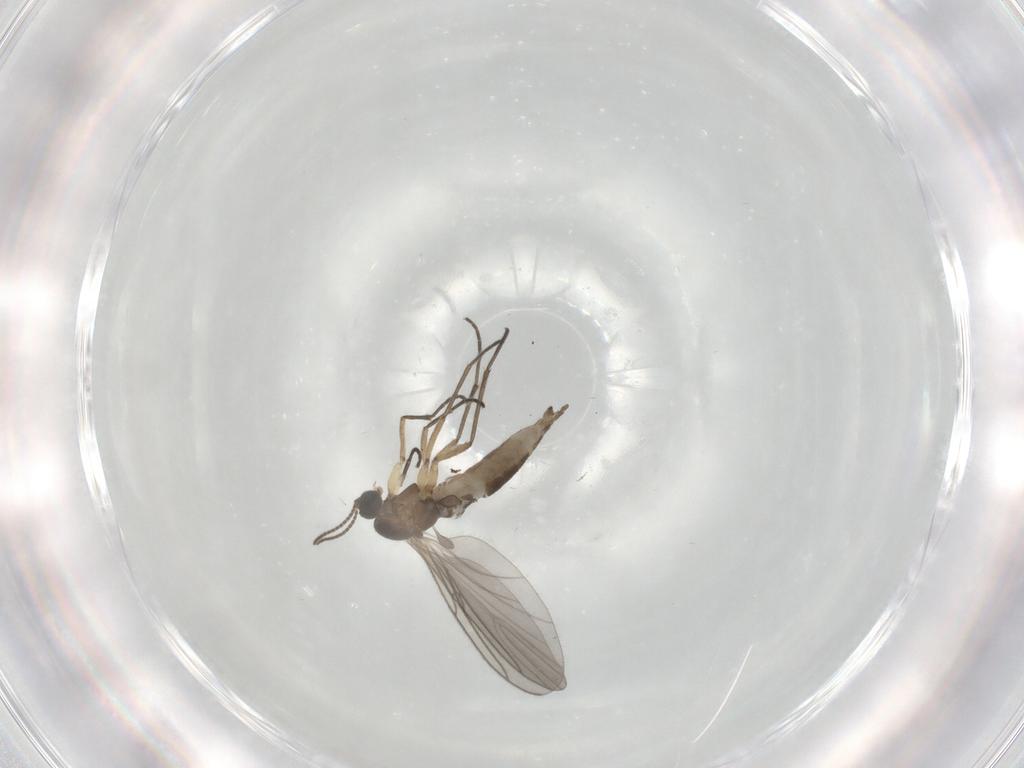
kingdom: Animalia
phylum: Arthropoda
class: Insecta
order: Diptera
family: Sciaridae
